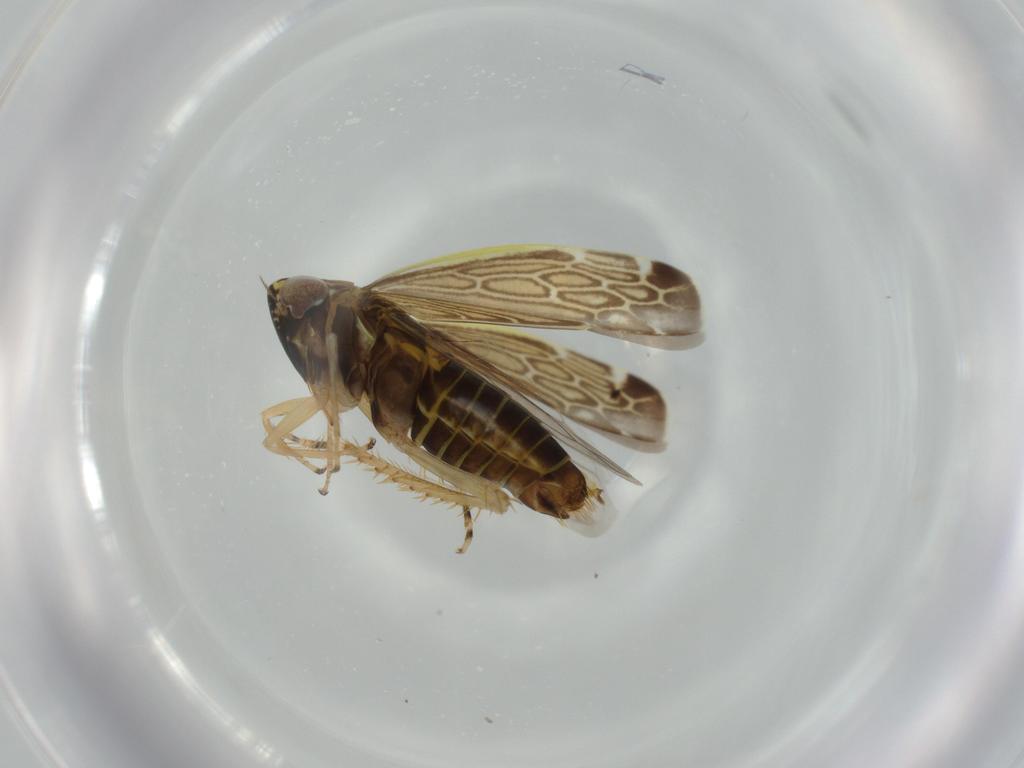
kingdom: Animalia
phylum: Arthropoda
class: Insecta
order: Hemiptera
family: Cicadellidae
